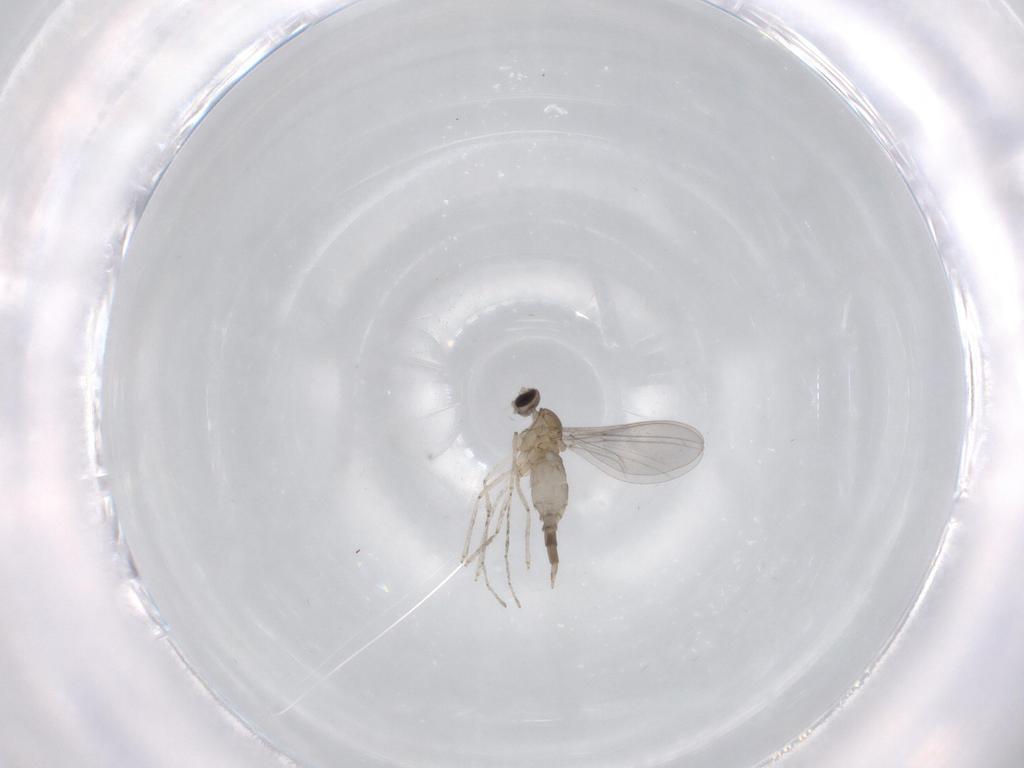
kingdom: Animalia
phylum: Arthropoda
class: Insecta
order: Diptera
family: Cecidomyiidae
